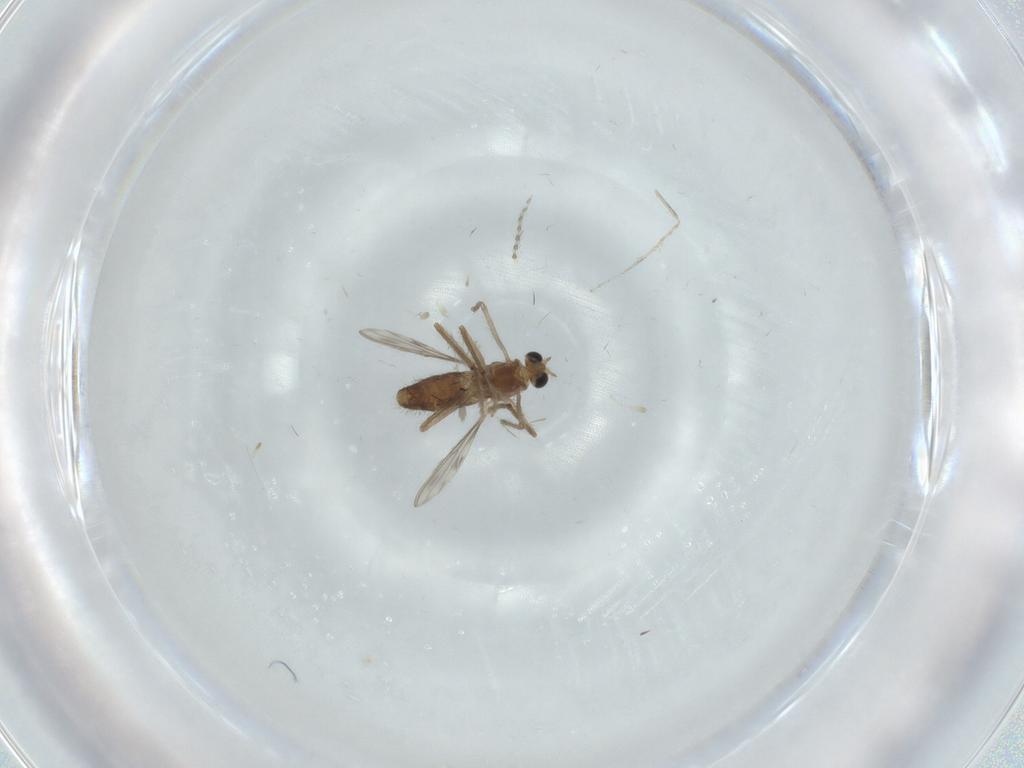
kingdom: Animalia
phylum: Arthropoda
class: Insecta
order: Diptera
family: Chironomidae
